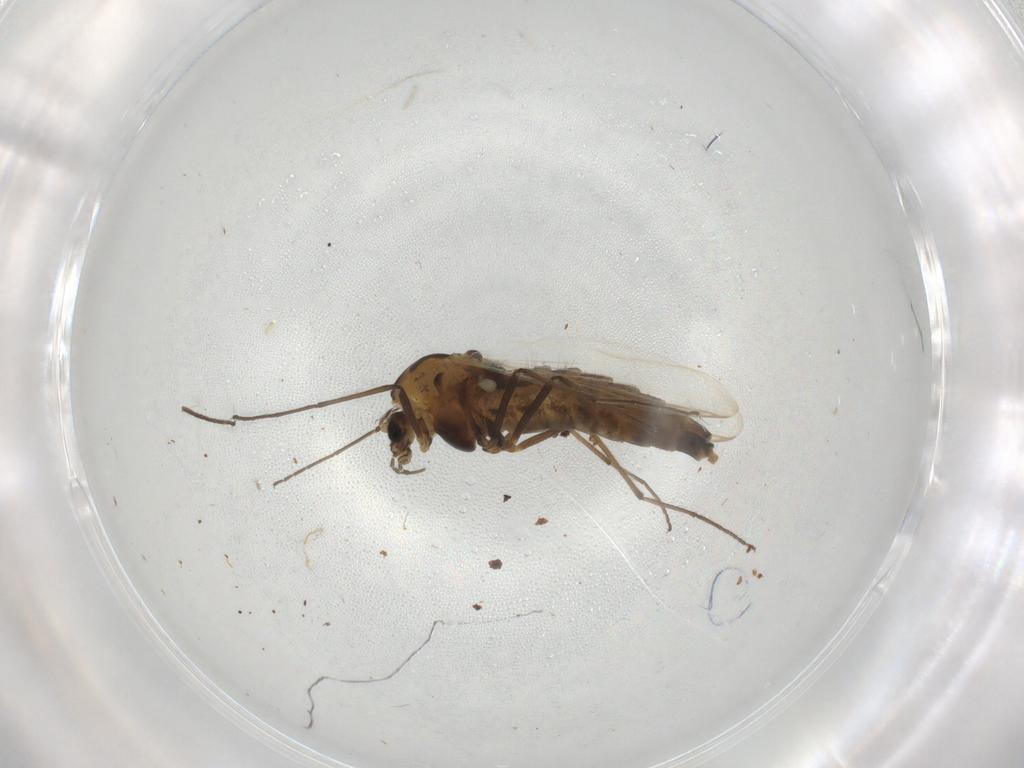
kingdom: Animalia
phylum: Arthropoda
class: Insecta
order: Diptera
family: Chironomidae
